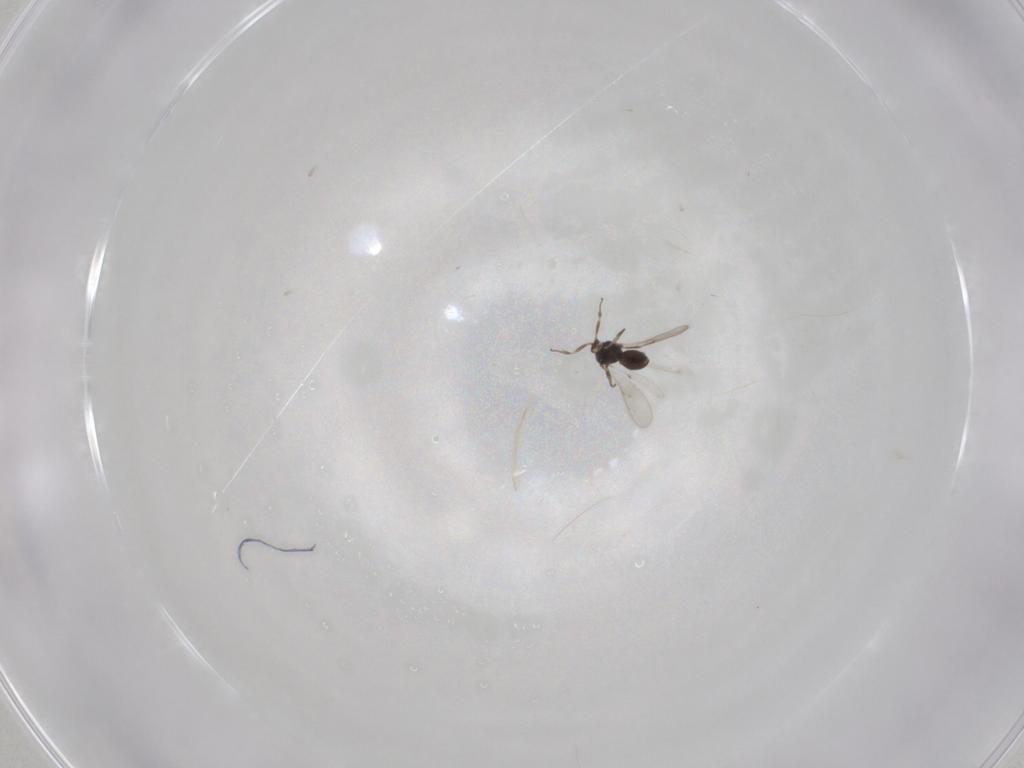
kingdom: Animalia
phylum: Arthropoda
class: Insecta
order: Hymenoptera
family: Scelionidae
